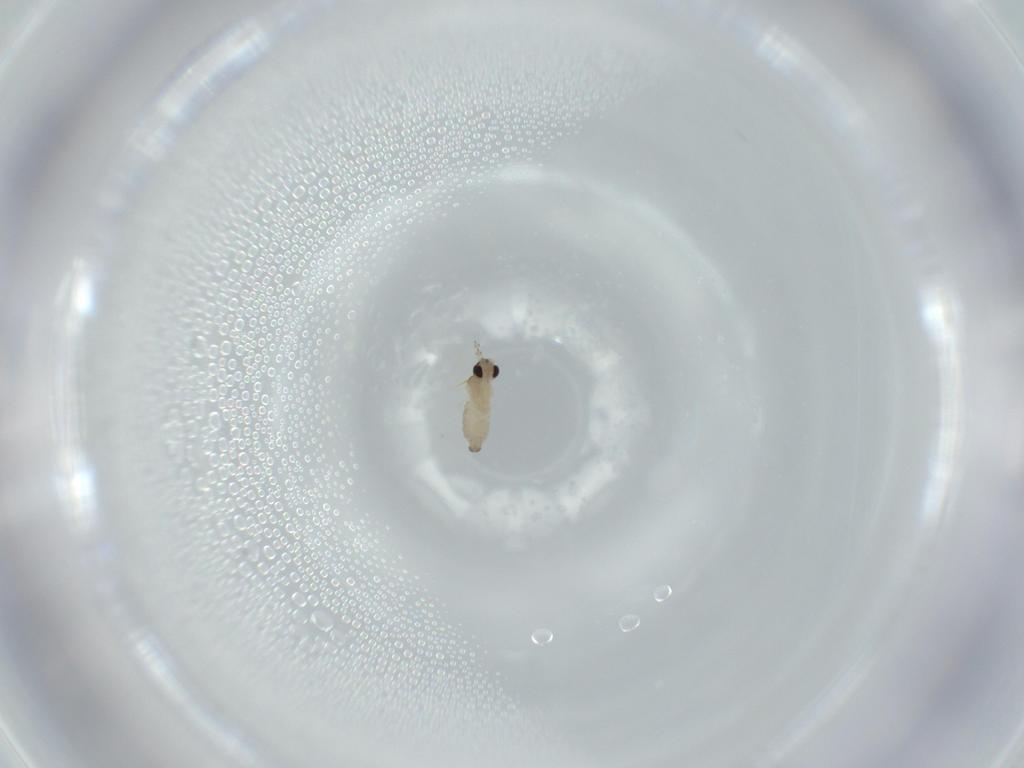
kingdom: Animalia
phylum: Arthropoda
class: Insecta
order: Diptera
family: Cecidomyiidae
